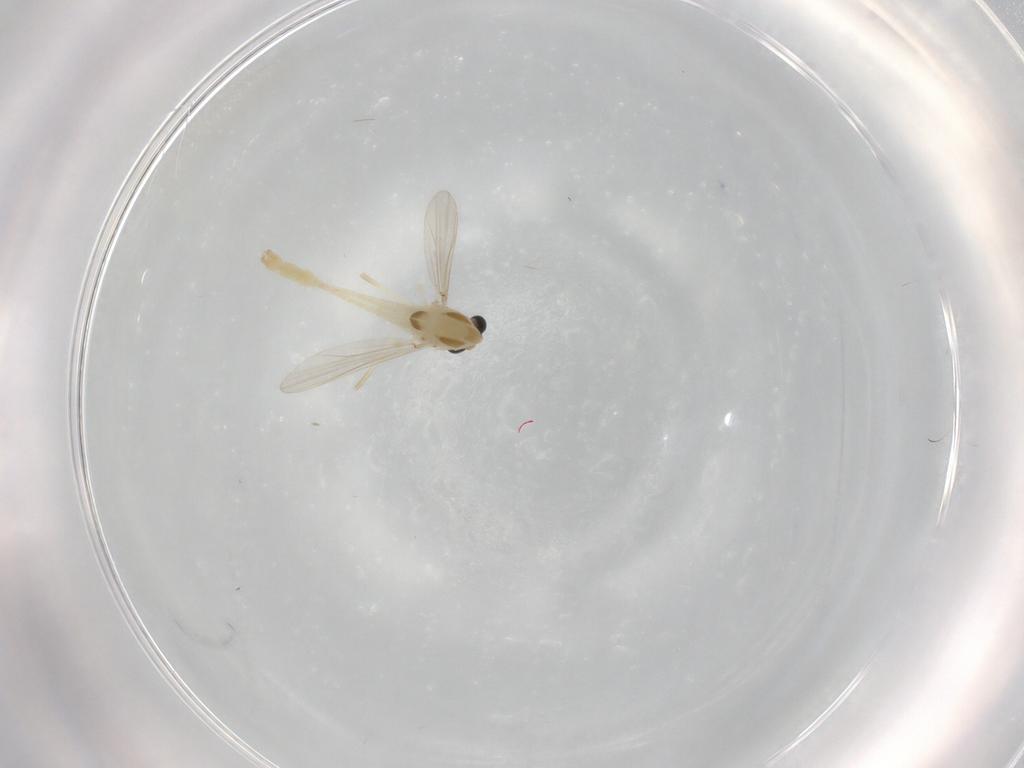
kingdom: Animalia
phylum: Arthropoda
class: Insecta
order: Diptera
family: Chironomidae
